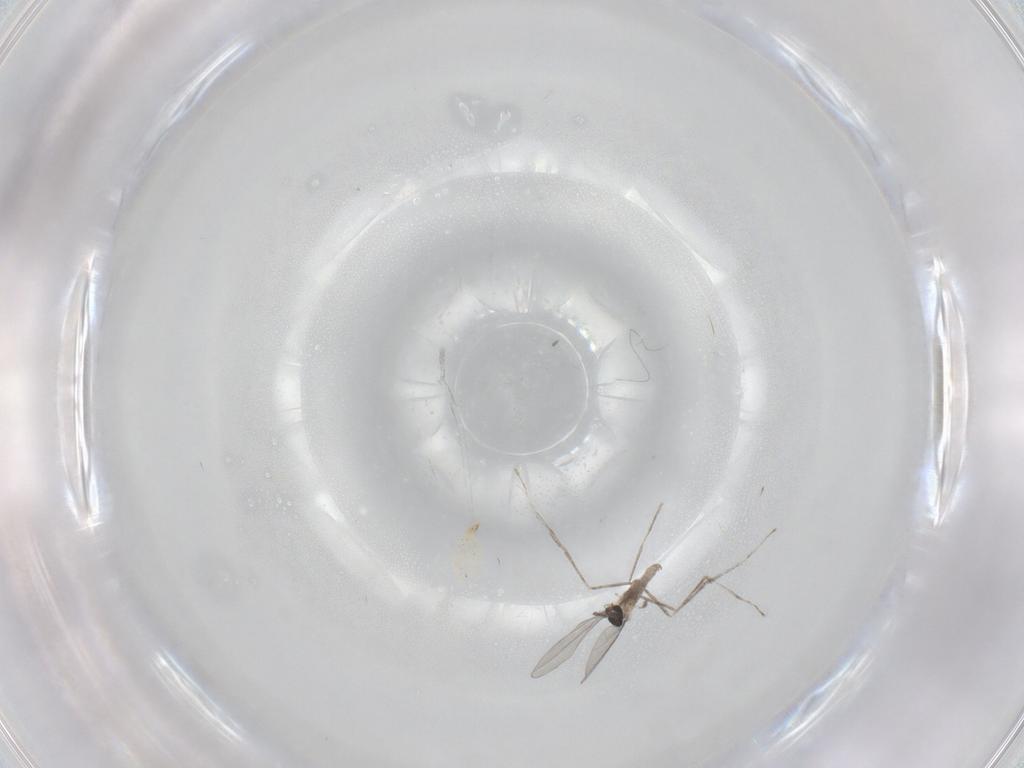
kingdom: Animalia
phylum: Arthropoda
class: Insecta
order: Diptera
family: Cecidomyiidae
